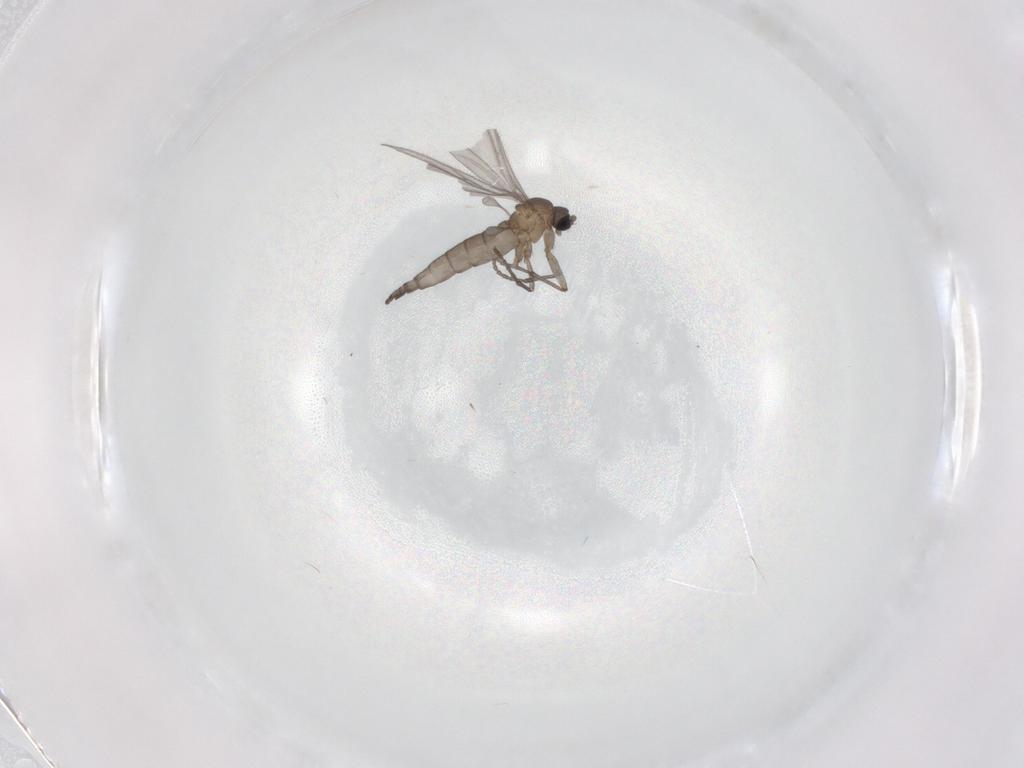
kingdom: Animalia
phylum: Arthropoda
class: Insecta
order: Diptera
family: Sciaridae
